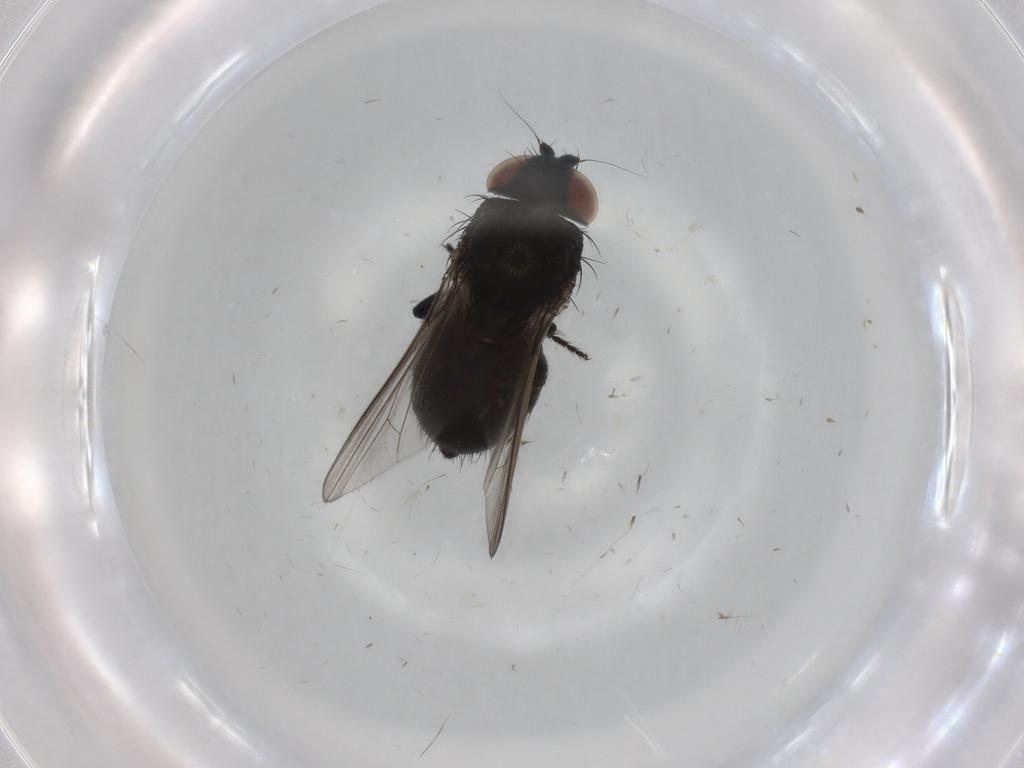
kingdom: Animalia
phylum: Arthropoda
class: Insecta
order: Diptera
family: Milichiidae
